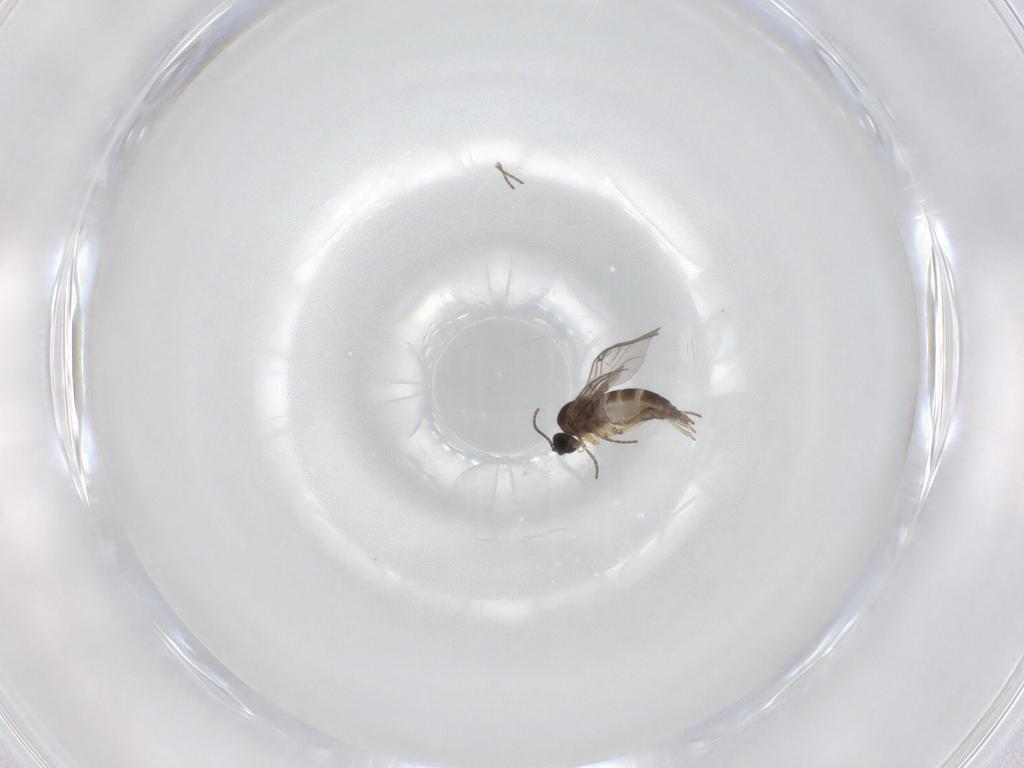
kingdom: Animalia
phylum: Arthropoda
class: Insecta
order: Diptera
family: Sciaridae
